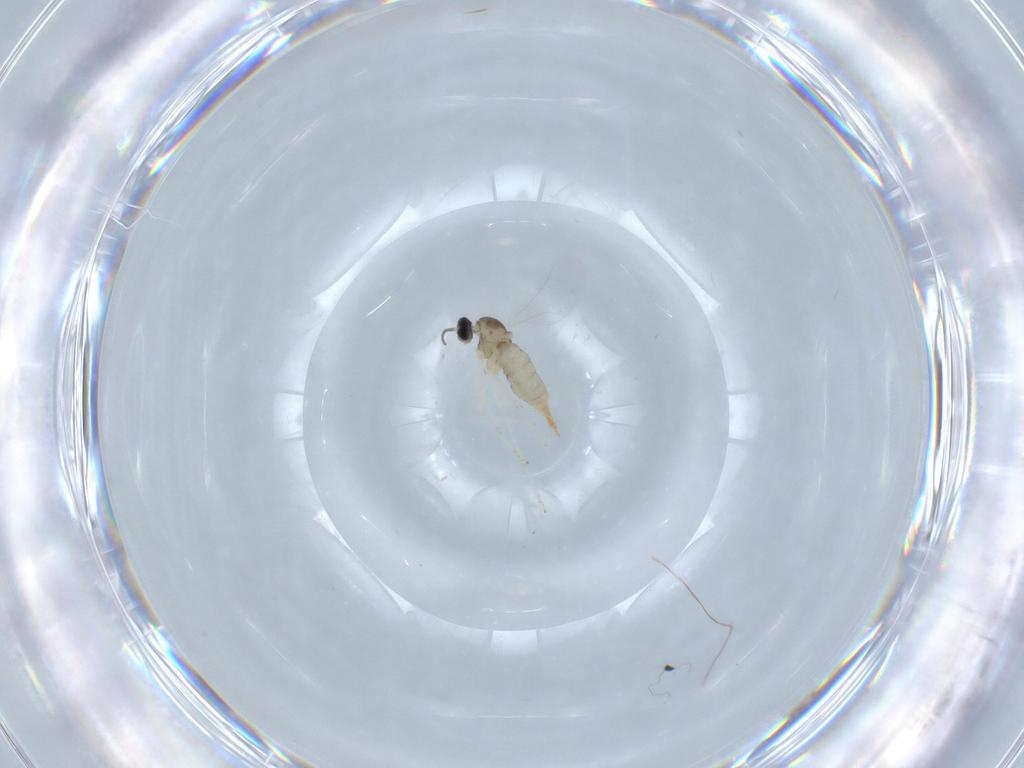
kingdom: Animalia
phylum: Arthropoda
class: Insecta
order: Diptera
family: Cecidomyiidae
